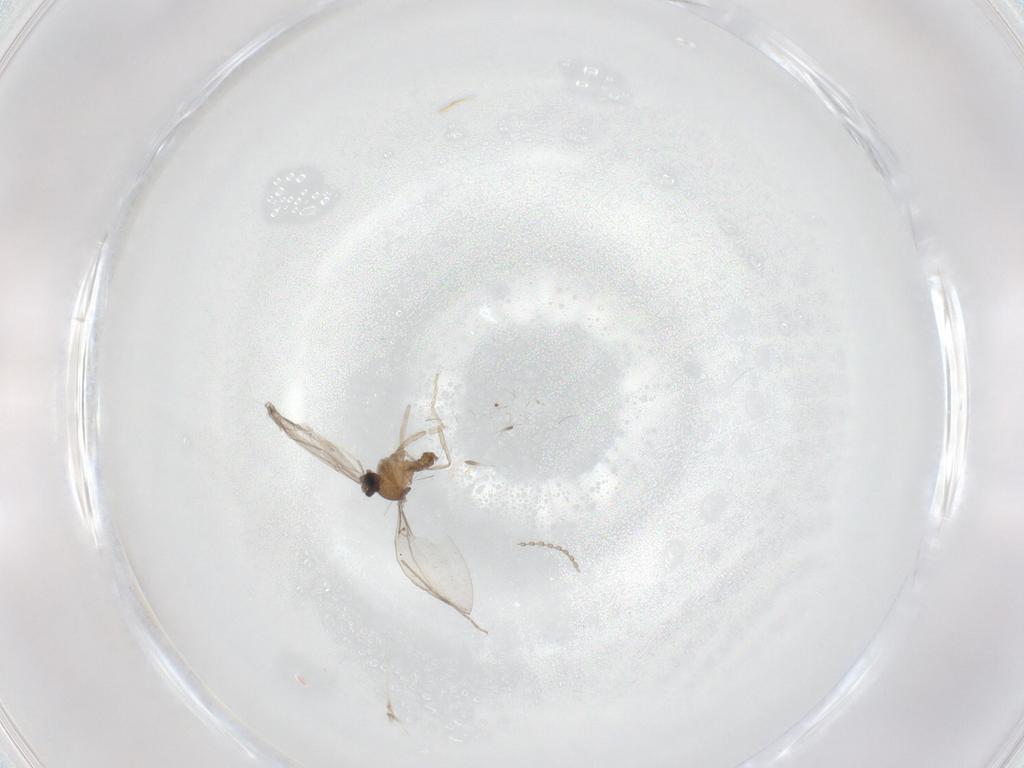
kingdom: Animalia
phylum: Arthropoda
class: Insecta
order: Diptera
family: Cecidomyiidae
